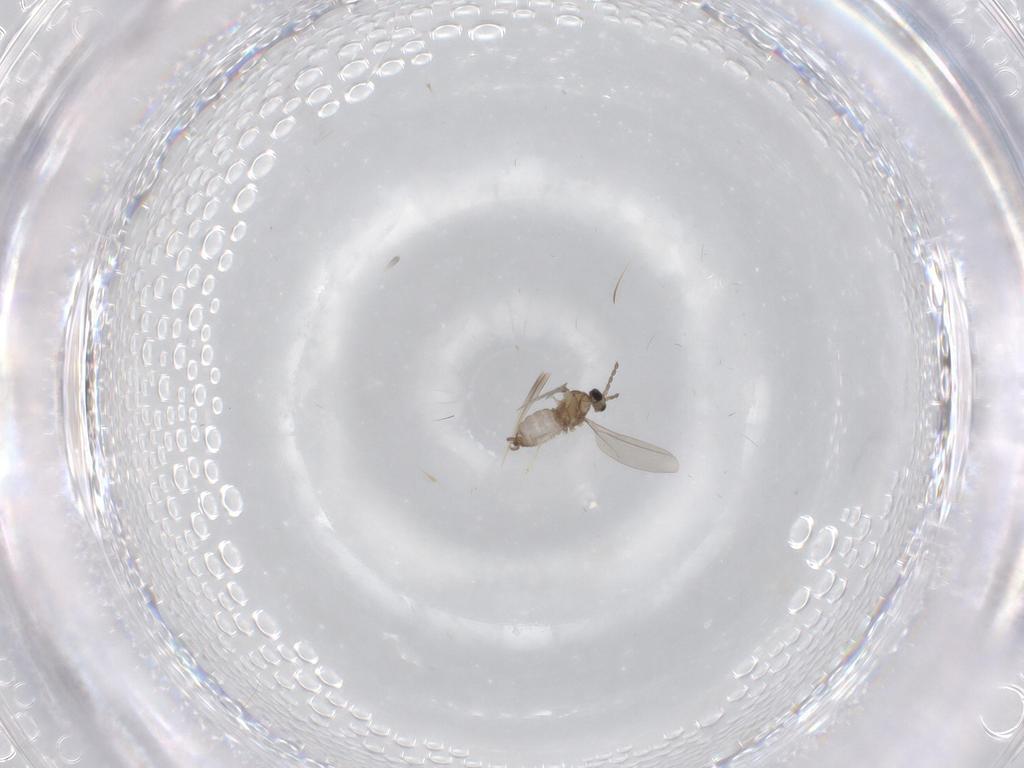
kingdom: Animalia
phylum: Arthropoda
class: Insecta
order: Diptera
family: Cecidomyiidae
